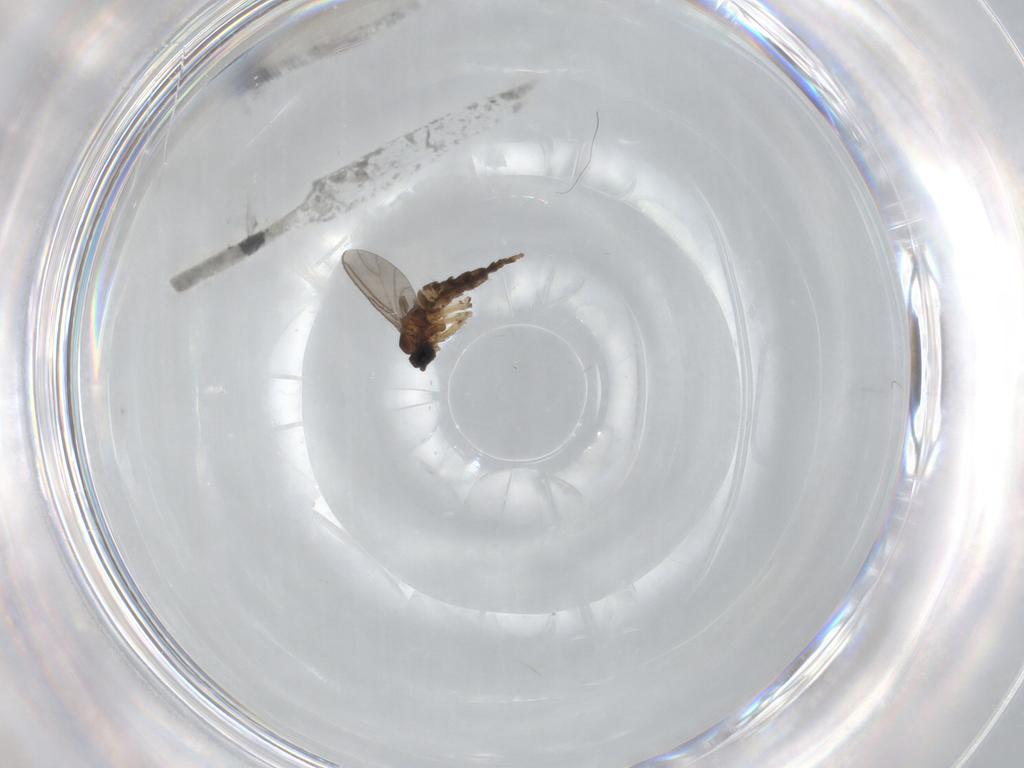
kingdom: Animalia
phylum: Arthropoda
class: Insecta
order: Diptera
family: Sciaridae
